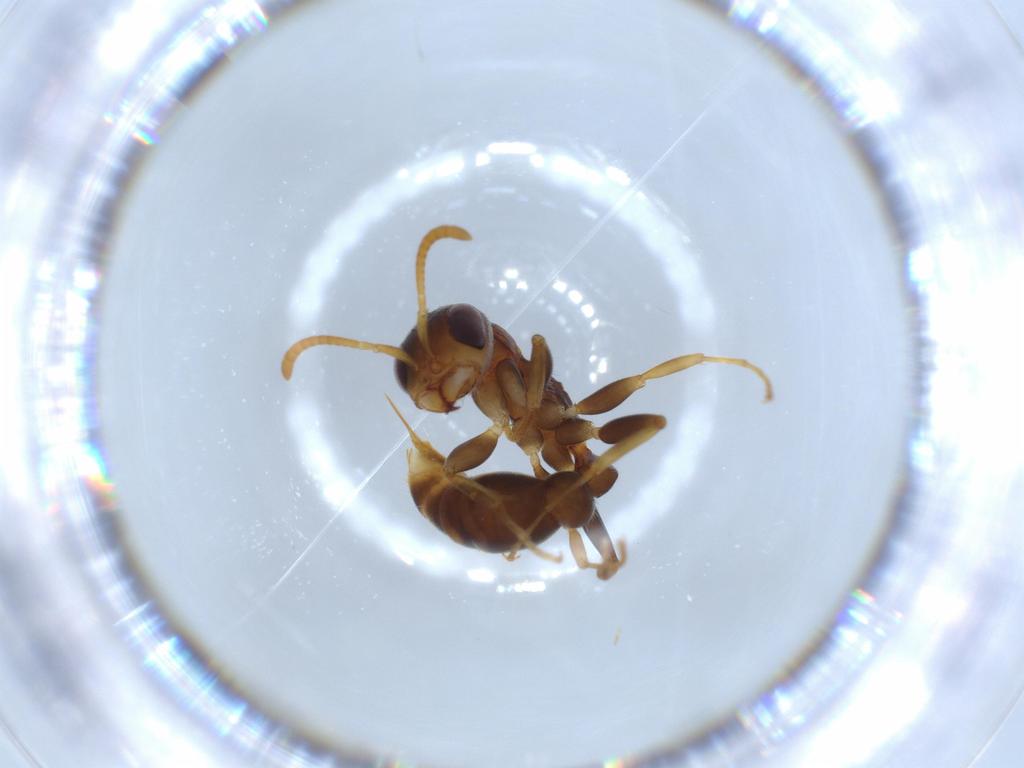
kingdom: Animalia
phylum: Arthropoda
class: Insecta
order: Hymenoptera
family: Formicidae
